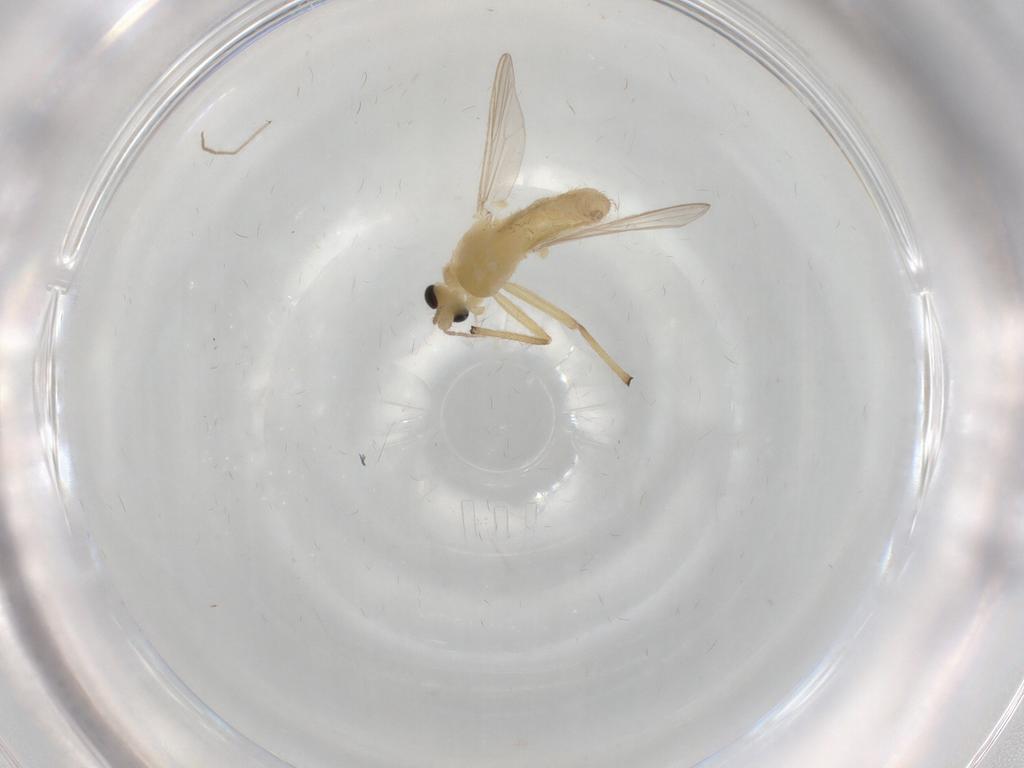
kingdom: Animalia
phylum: Arthropoda
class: Insecta
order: Diptera
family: Chironomidae
